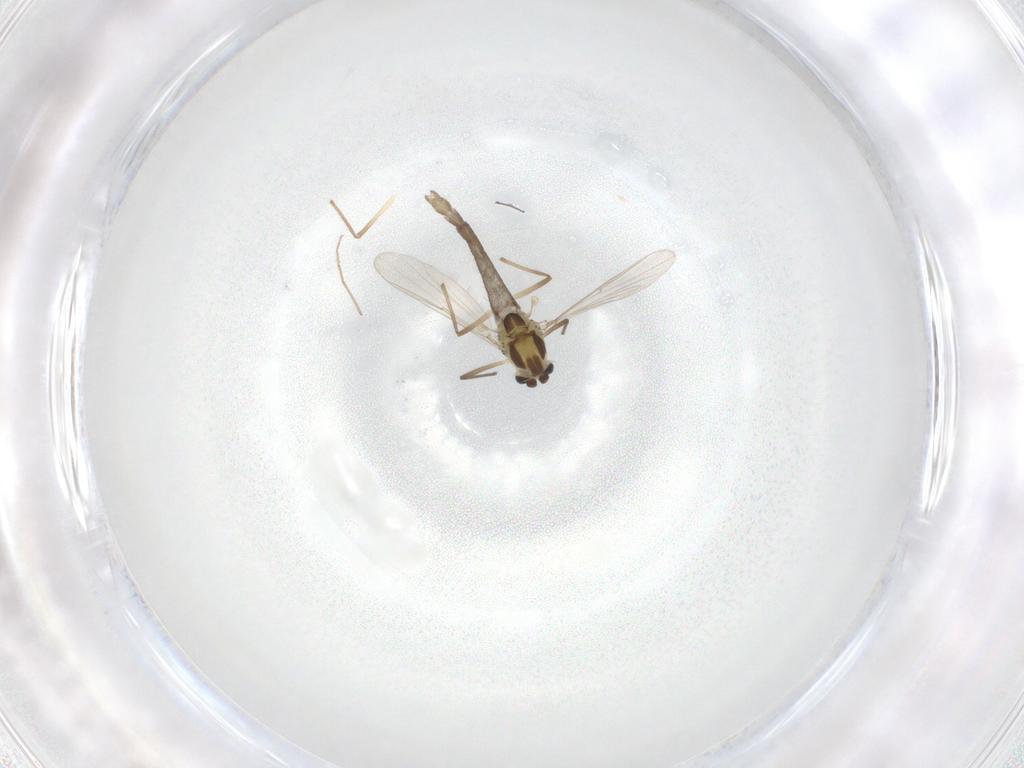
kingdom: Animalia
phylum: Arthropoda
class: Insecta
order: Diptera
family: Chironomidae
